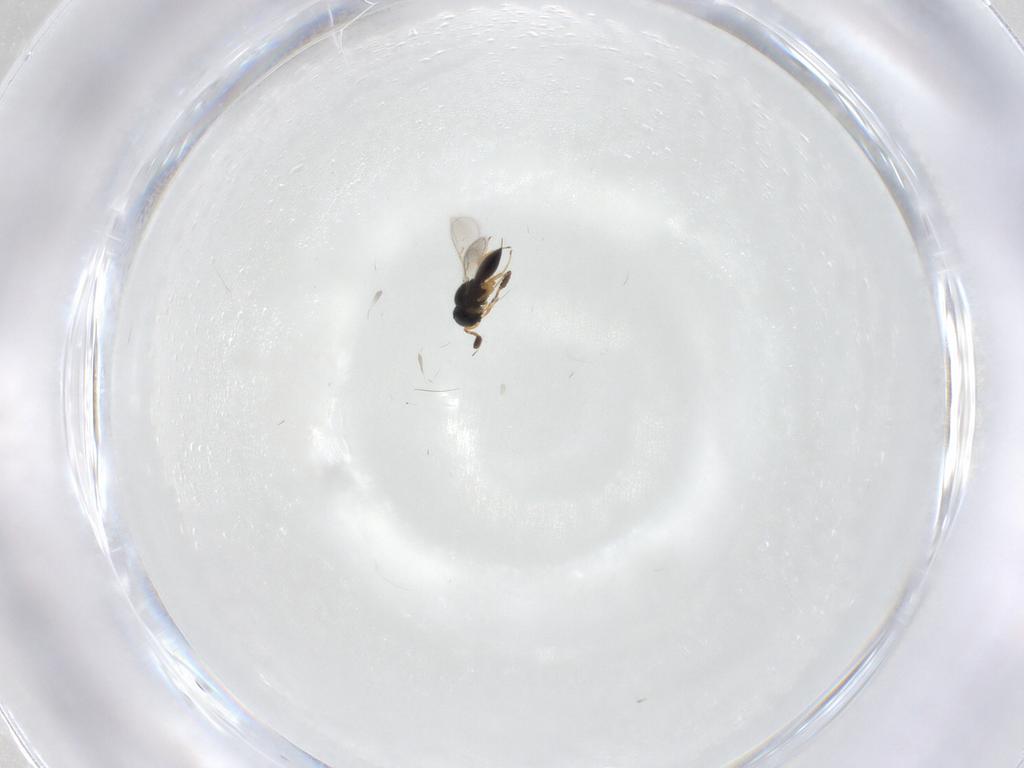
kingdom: Animalia
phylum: Arthropoda
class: Insecta
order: Hymenoptera
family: Scelionidae
